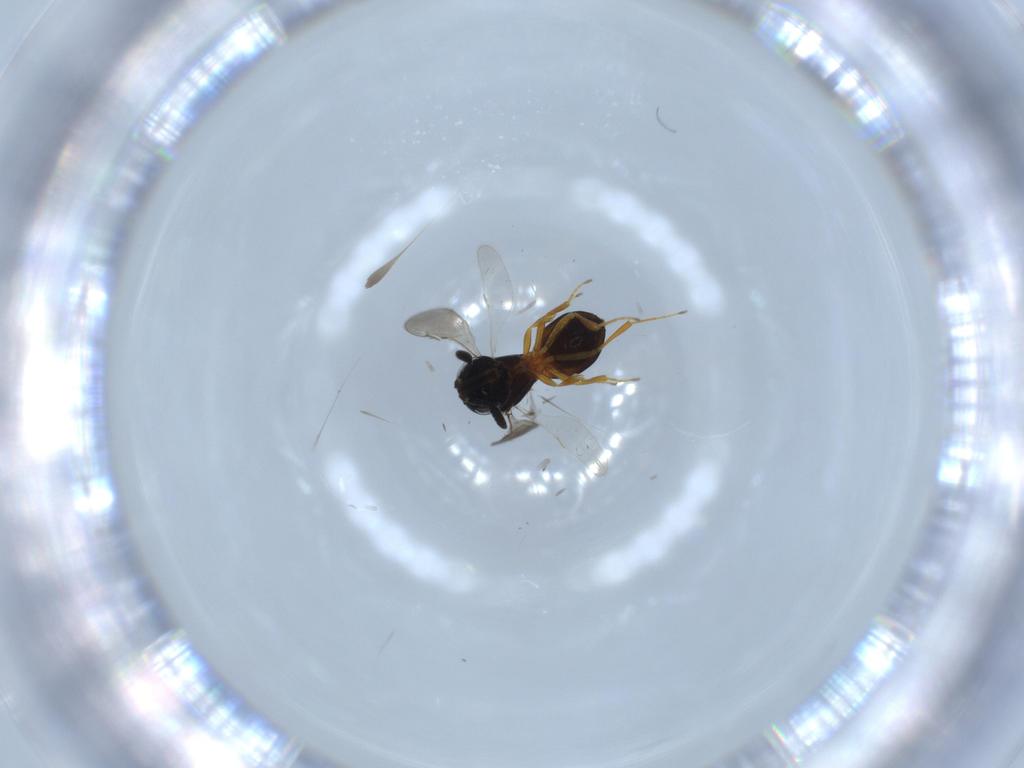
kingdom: Animalia
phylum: Arthropoda
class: Insecta
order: Hymenoptera
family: Scelionidae
